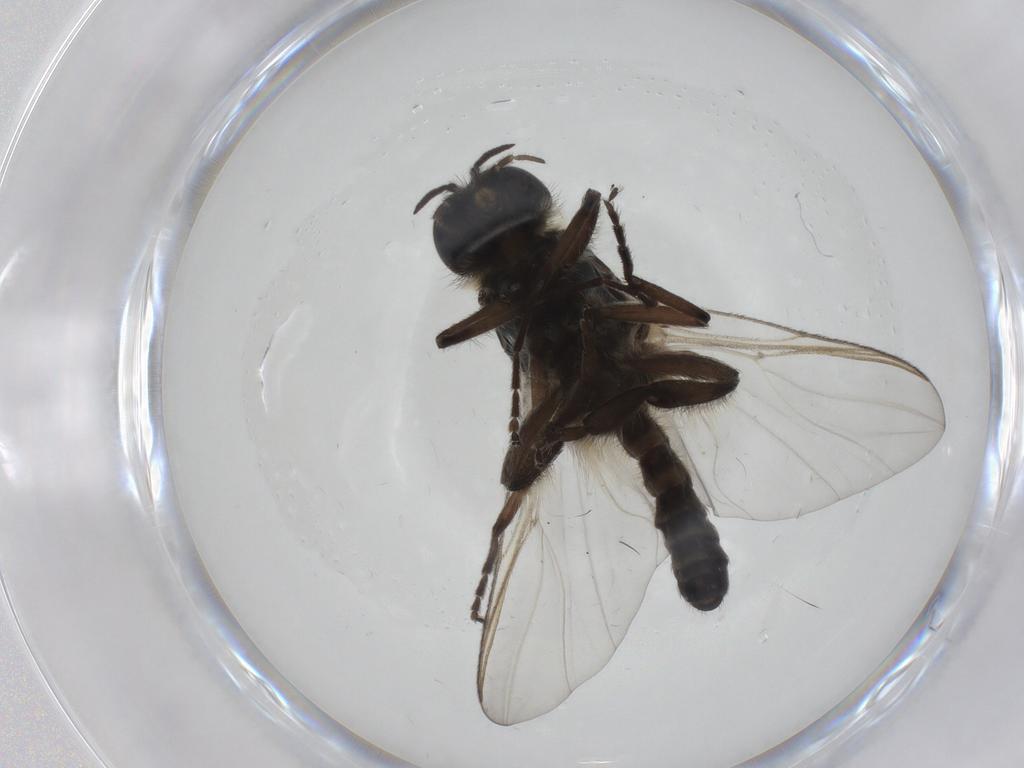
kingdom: Animalia
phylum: Arthropoda
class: Insecta
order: Diptera
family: Simuliidae
